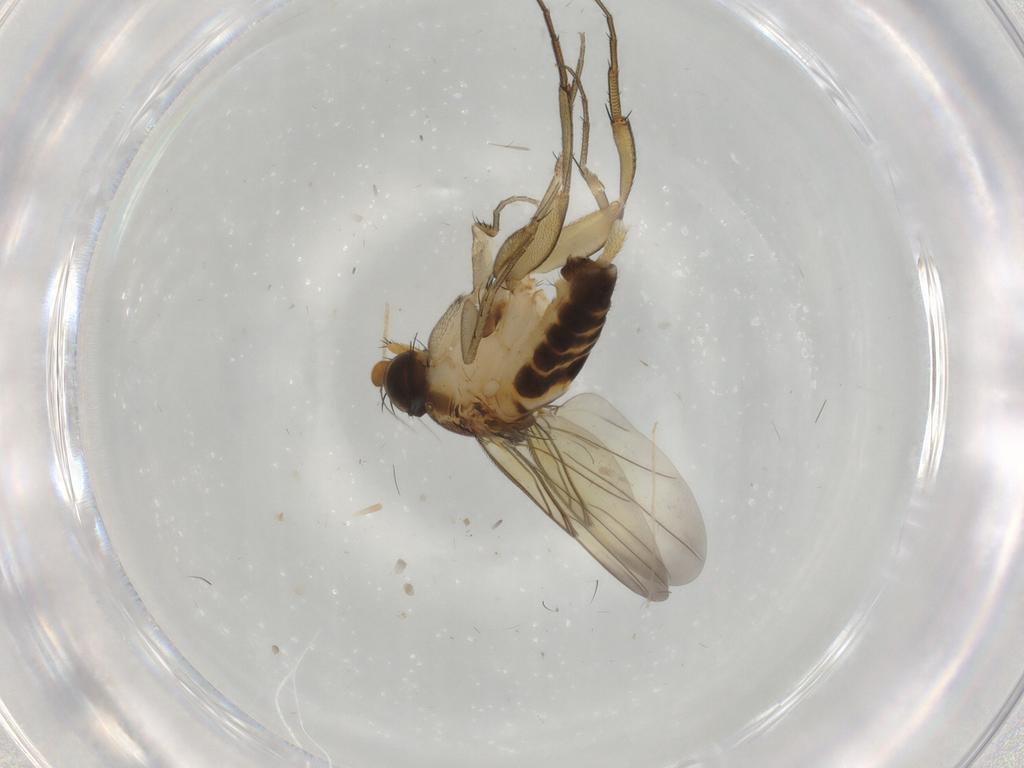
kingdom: Animalia
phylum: Arthropoda
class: Insecta
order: Diptera
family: Phoridae
